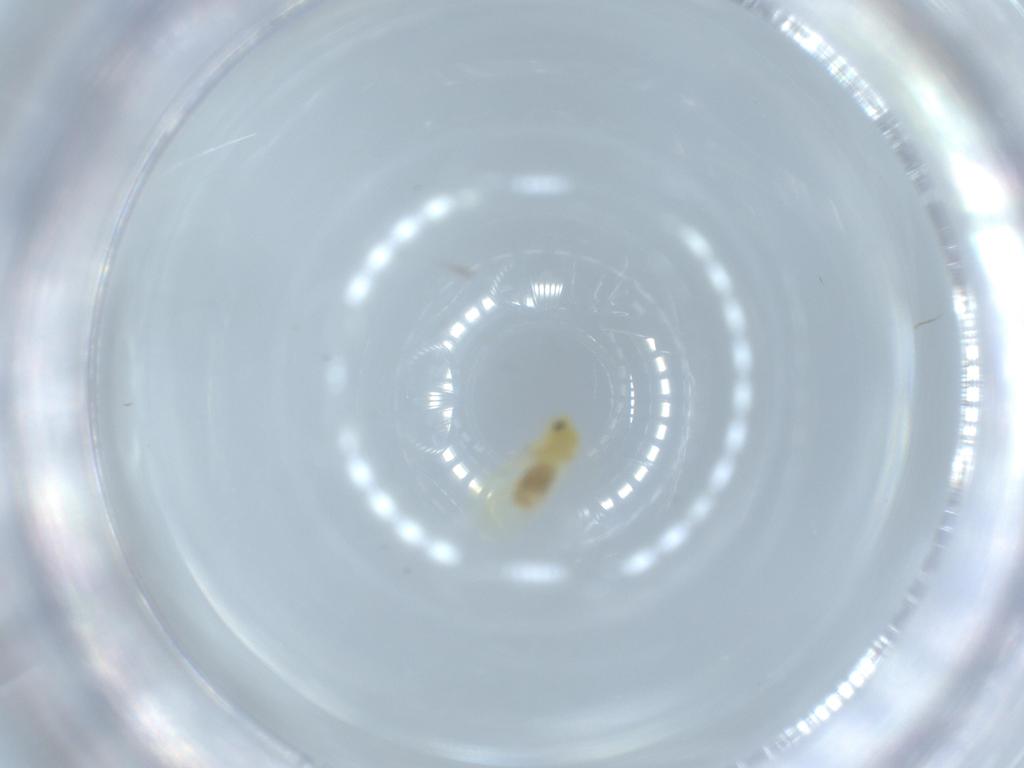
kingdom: Animalia
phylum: Arthropoda
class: Insecta
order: Hemiptera
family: Aleyrodidae
